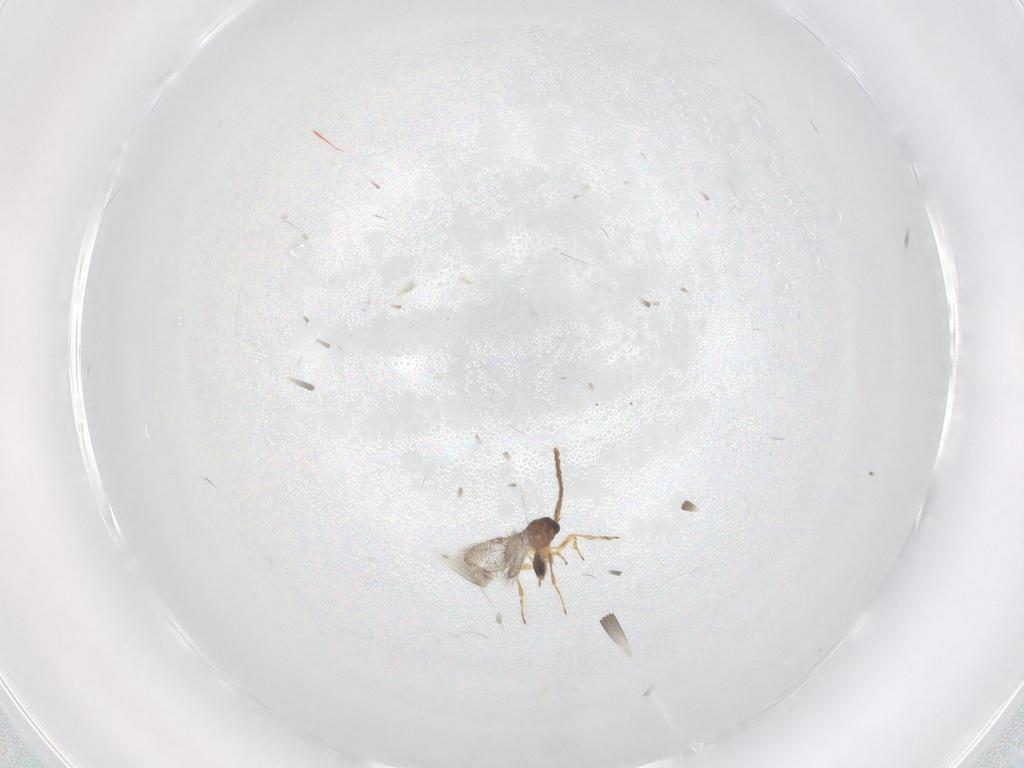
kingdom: Animalia
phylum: Arthropoda
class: Insecta
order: Hymenoptera
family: Figitidae
